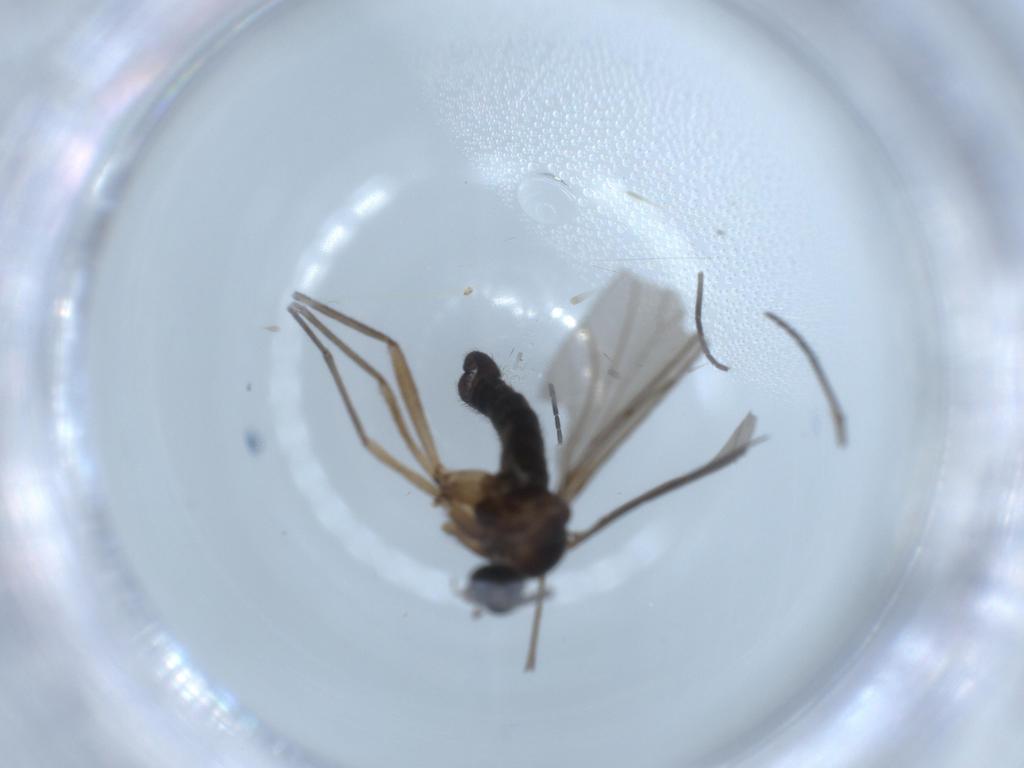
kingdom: Animalia
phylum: Arthropoda
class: Insecta
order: Diptera
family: Sciaridae
